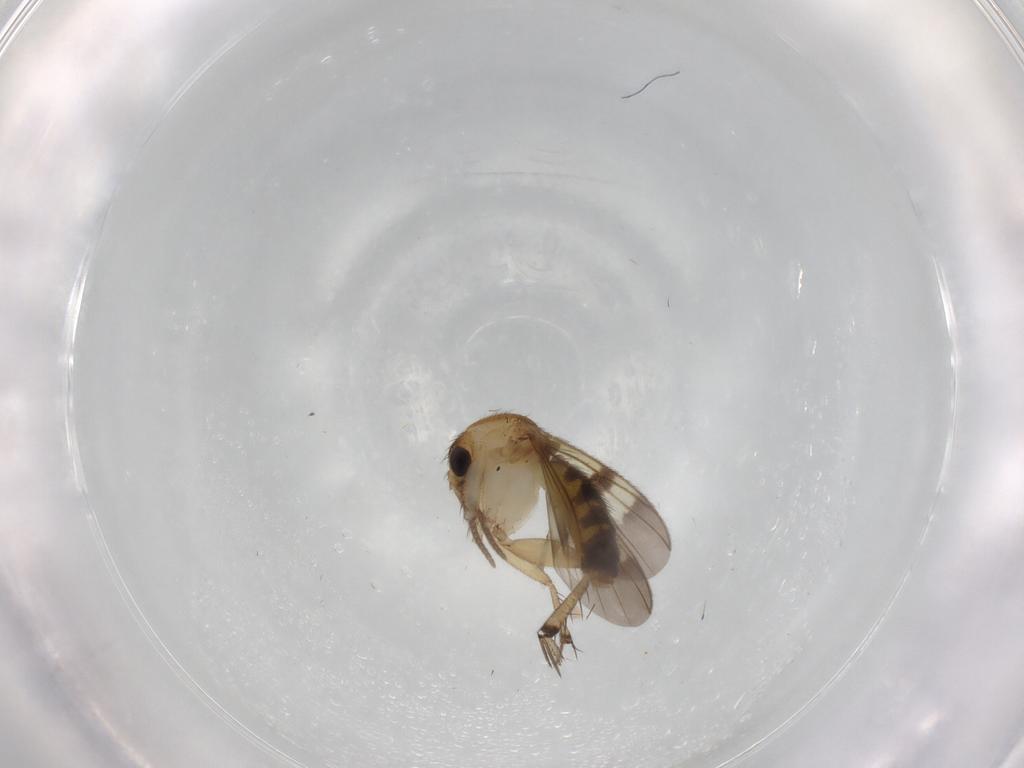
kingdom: Animalia
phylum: Arthropoda
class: Insecta
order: Diptera
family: Mycetophilidae
